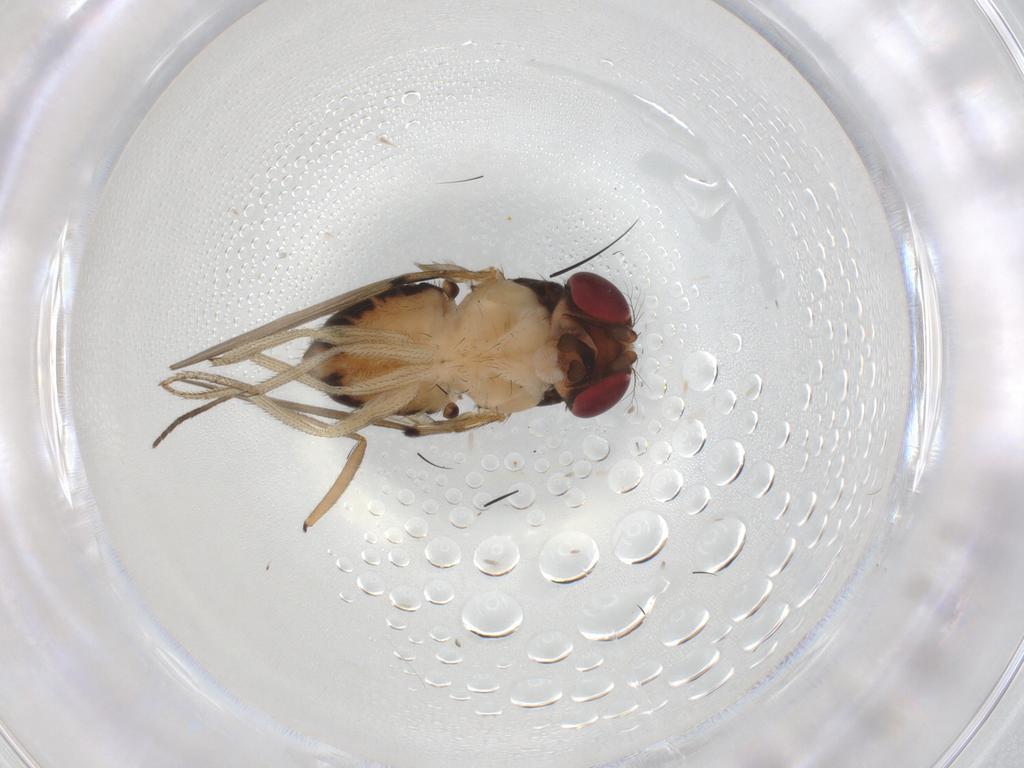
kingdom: Animalia
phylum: Arthropoda
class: Insecta
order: Diptera
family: Drosophilidae
